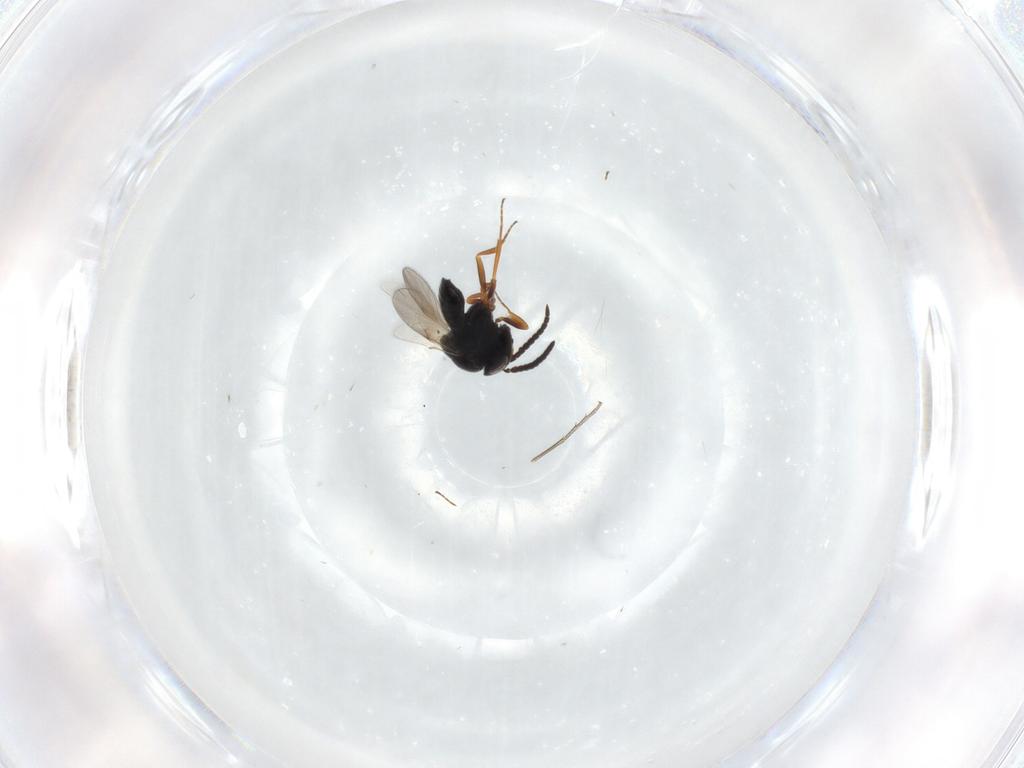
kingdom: Animalia
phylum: Arthropoda
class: Insecta
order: Hymenoptera
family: Scelionidae
